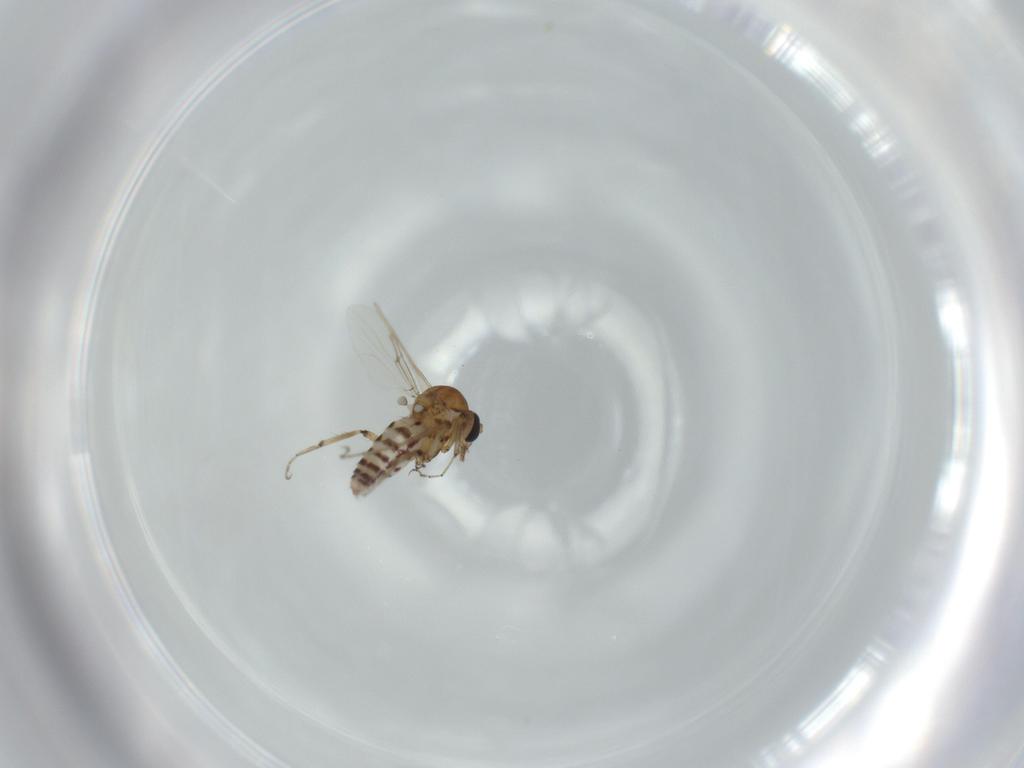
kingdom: Animalia
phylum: Arthropoda
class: Insecta
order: Diptera
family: Ceratopogonidae
